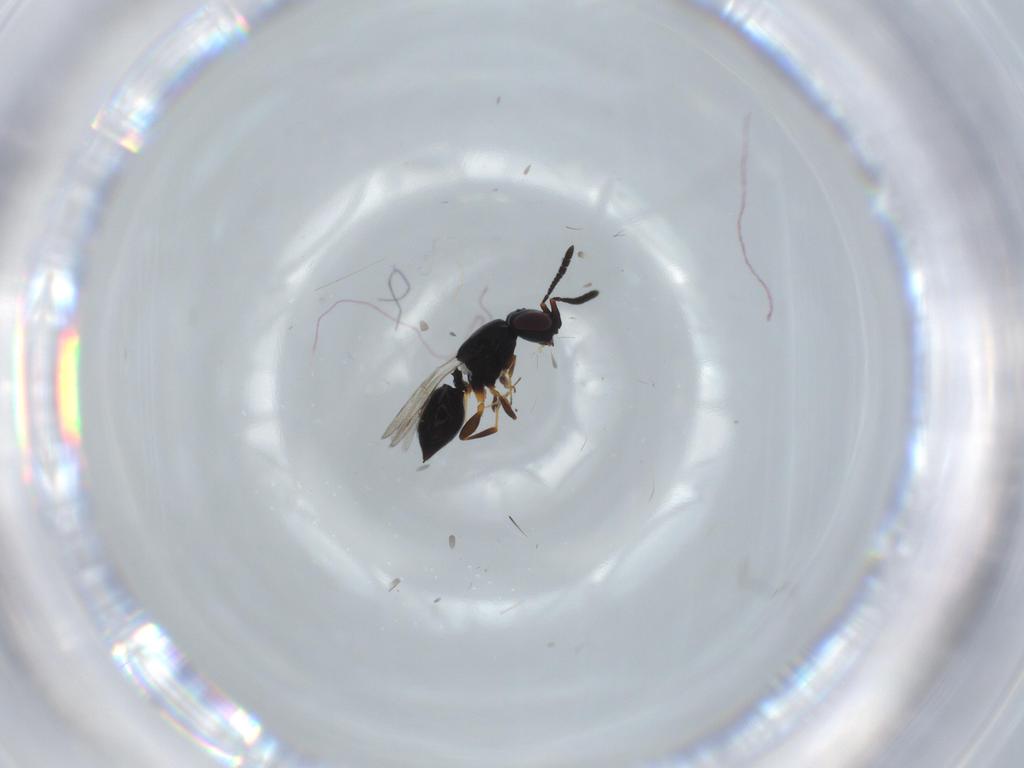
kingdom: Animalia
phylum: Arthropoda
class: Insecta
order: Hymenoptera
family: Ceraphronidae
